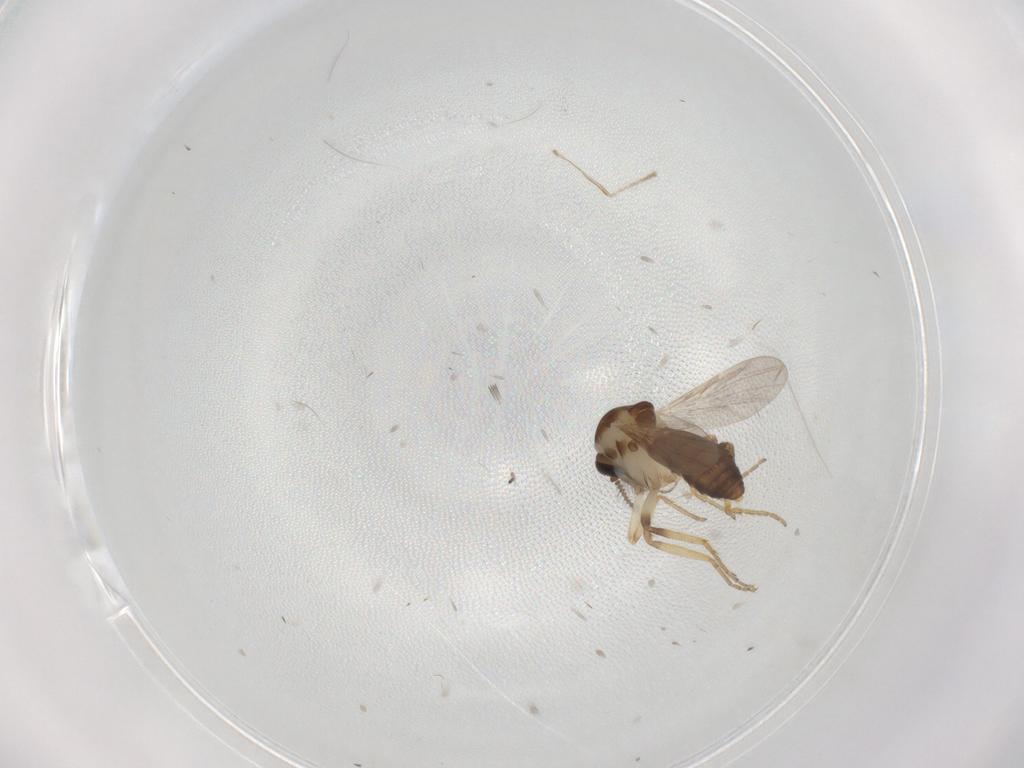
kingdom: Animalia
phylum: Arthropoda
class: Insecta
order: Diptera
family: Ceratopogonidae
